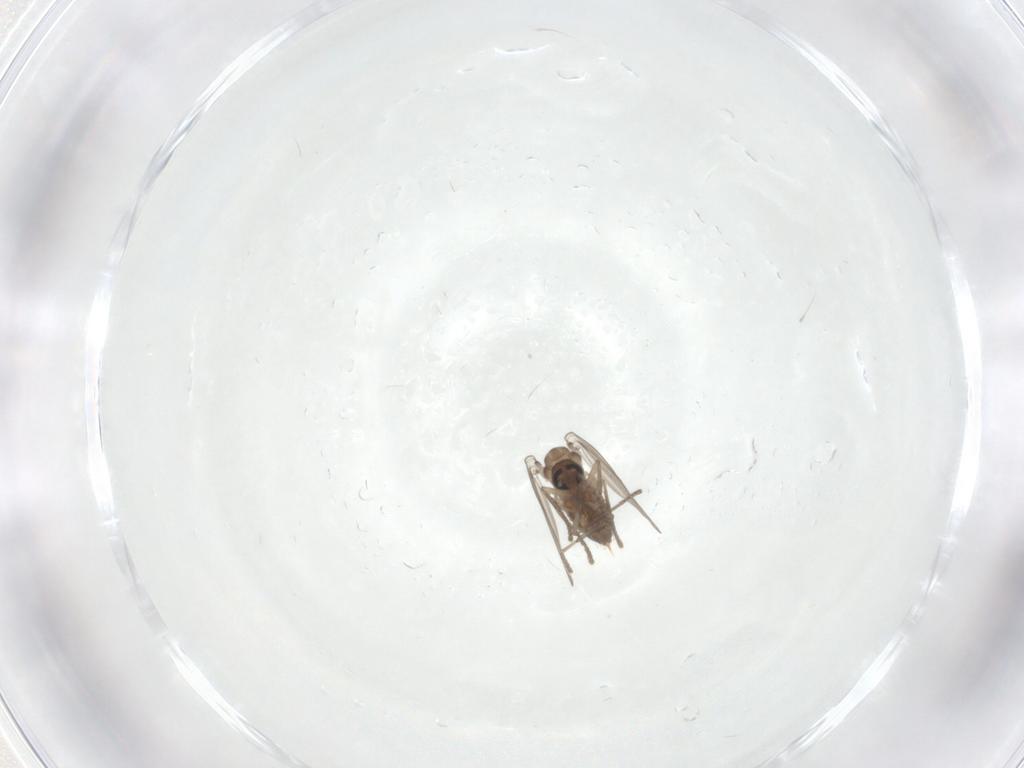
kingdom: Animalia
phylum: Arthropoda
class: Insecta
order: Diptera
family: Psychodidae
